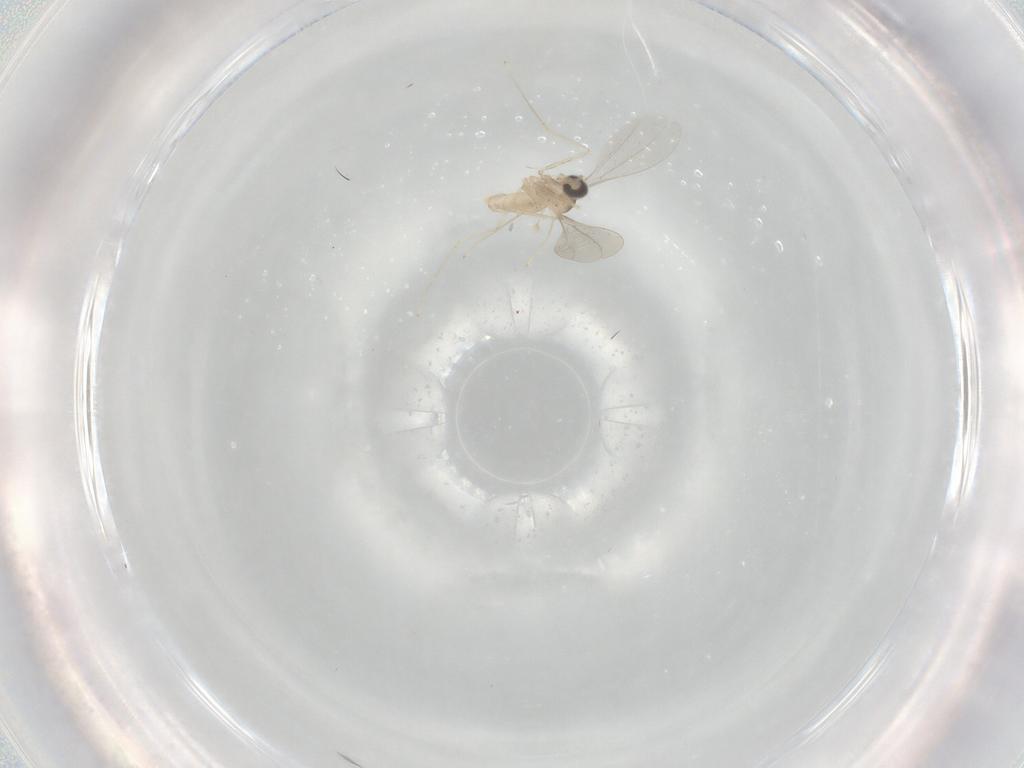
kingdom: Animalia
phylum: Arthropoda
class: Insecta
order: Diptera
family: Cecidomyiidae
